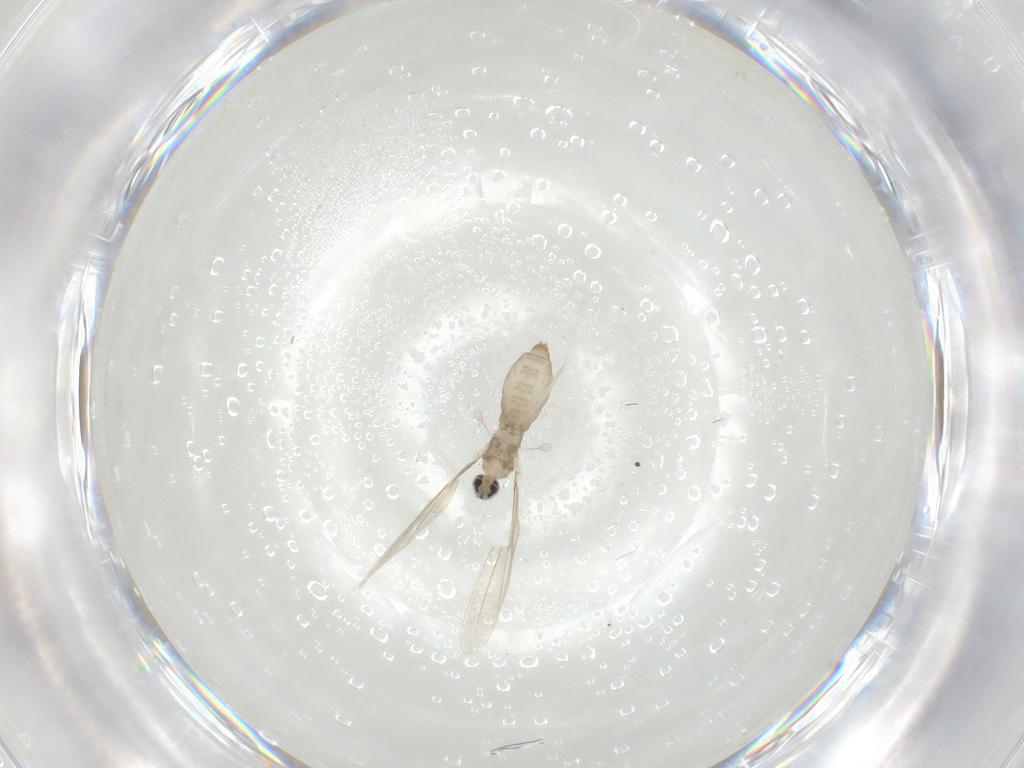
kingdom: Animalia
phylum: Arthropoda
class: Insecta
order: Diptera
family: Cecidomyiidae
